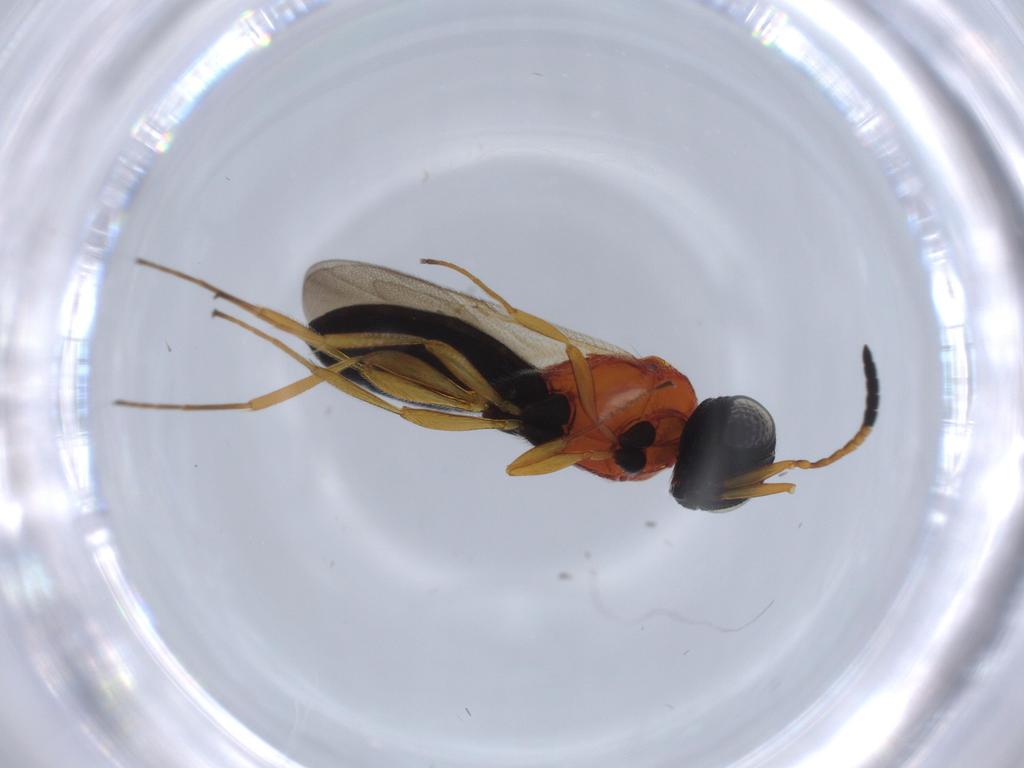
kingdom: Animalia
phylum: Arthropoda
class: Insecta
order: Hymenoptera
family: Scelionidae
